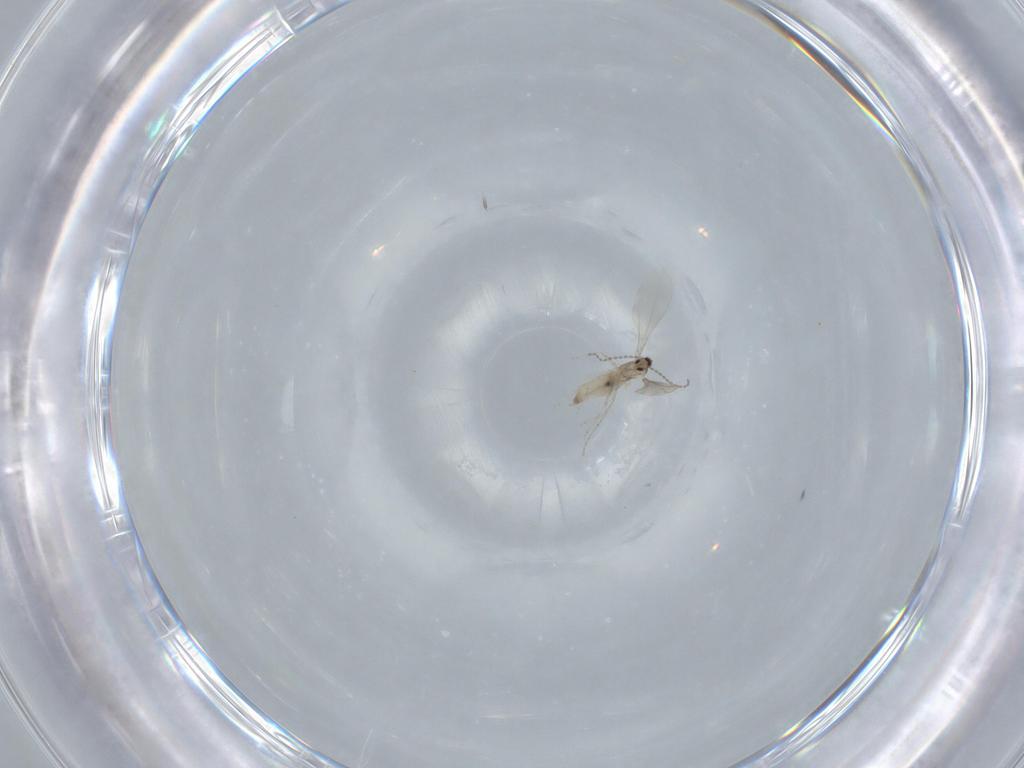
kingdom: Animalia
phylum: Arthropoda
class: Insecta
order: Diptera
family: Cecidomyiidae
